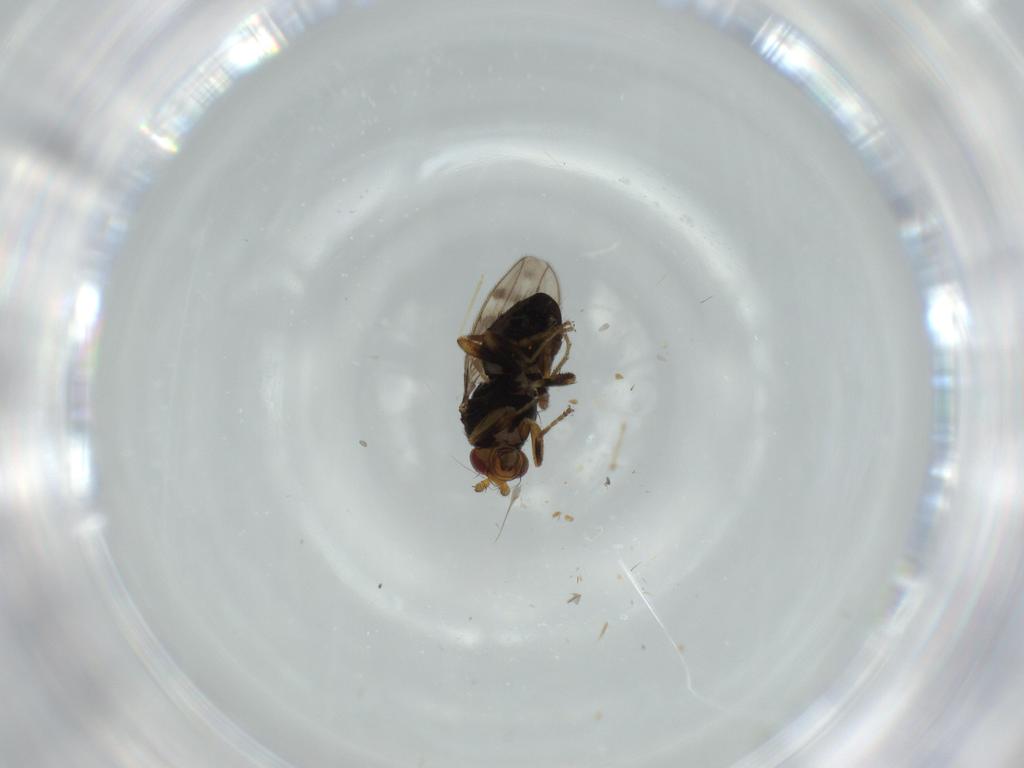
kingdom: Animalia
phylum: Arthropoda
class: Insecta
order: Diptera
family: Sphaeroceridae
